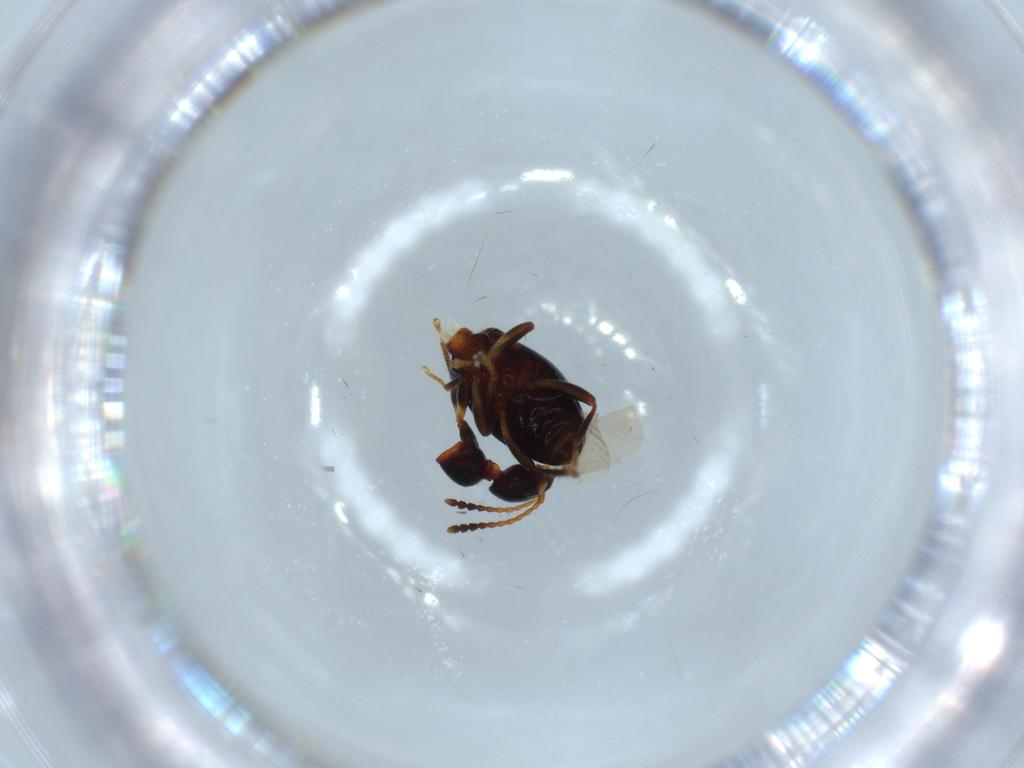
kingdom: Animalia
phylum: Arthropoda
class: Insecta
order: Coleoptera
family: Anthicidae
